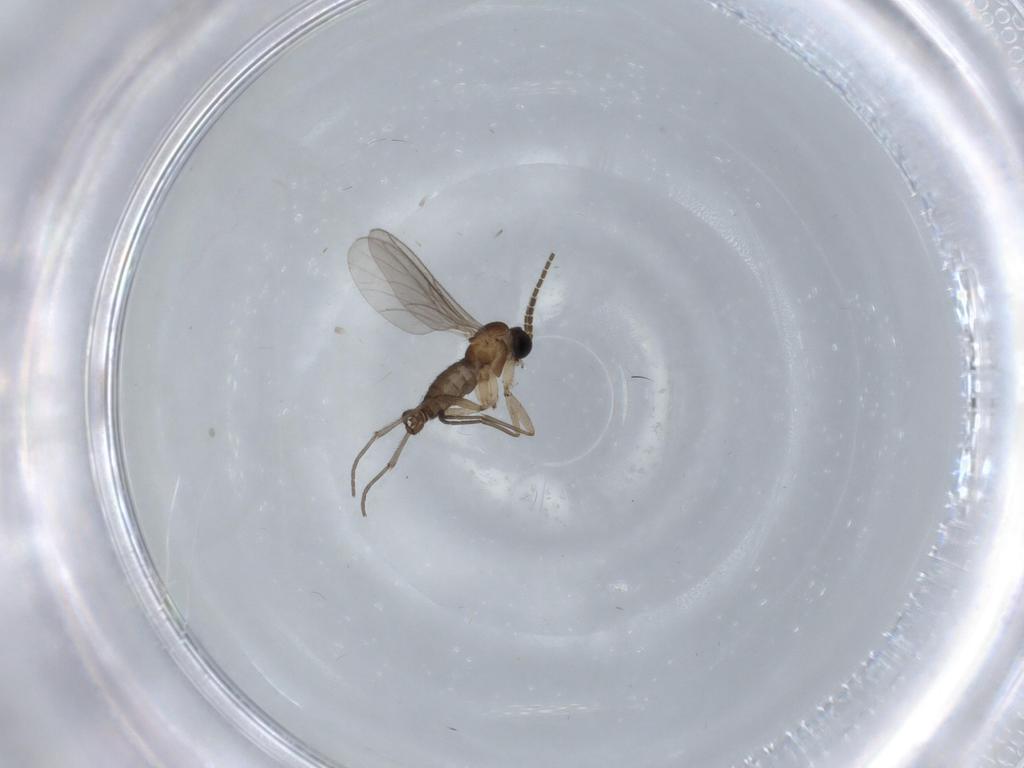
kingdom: Animalia
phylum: Arthropoda
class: Insecta
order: Diptera
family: Sciaridae
